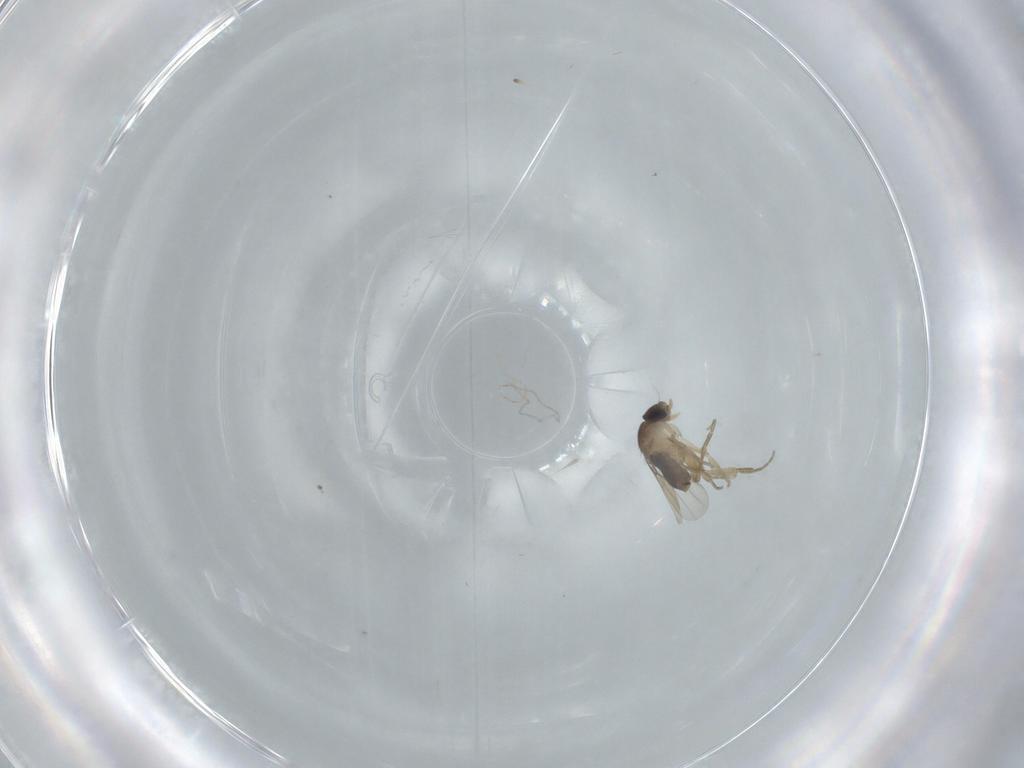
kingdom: Animalia
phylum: Arthropoda
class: Insecta
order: Diptera
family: Phoridae
